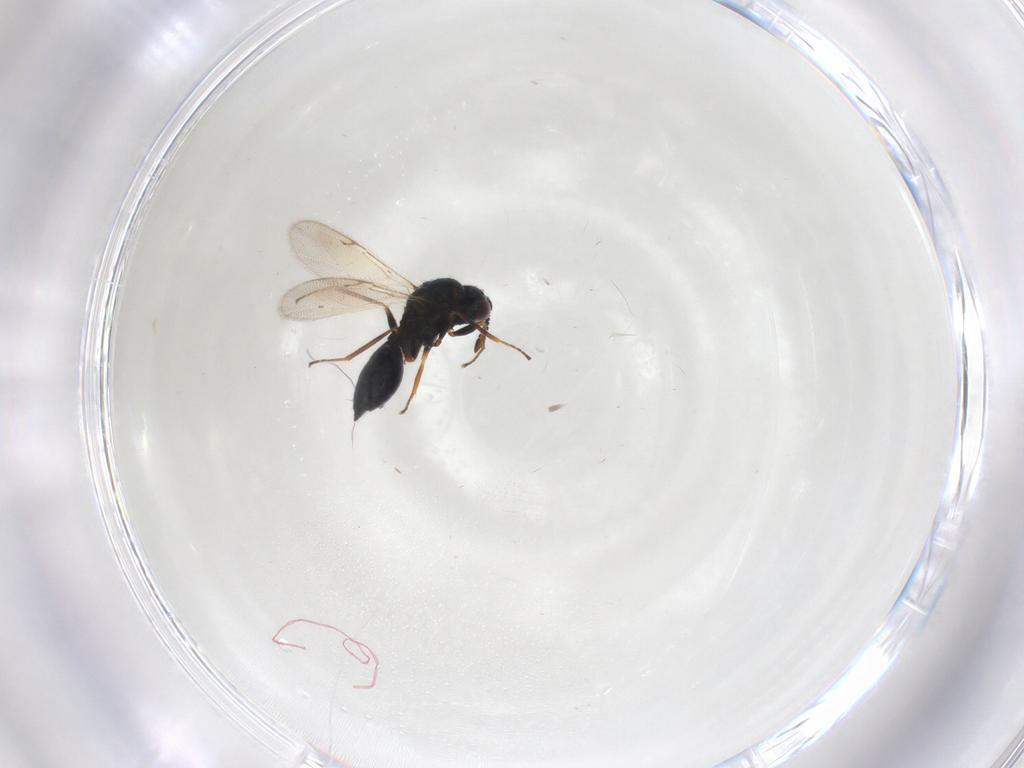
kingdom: Animalia
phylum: Arthropoda
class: Insecta
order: Hymenoptera
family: Chalcidoidea_incertae_sedis
